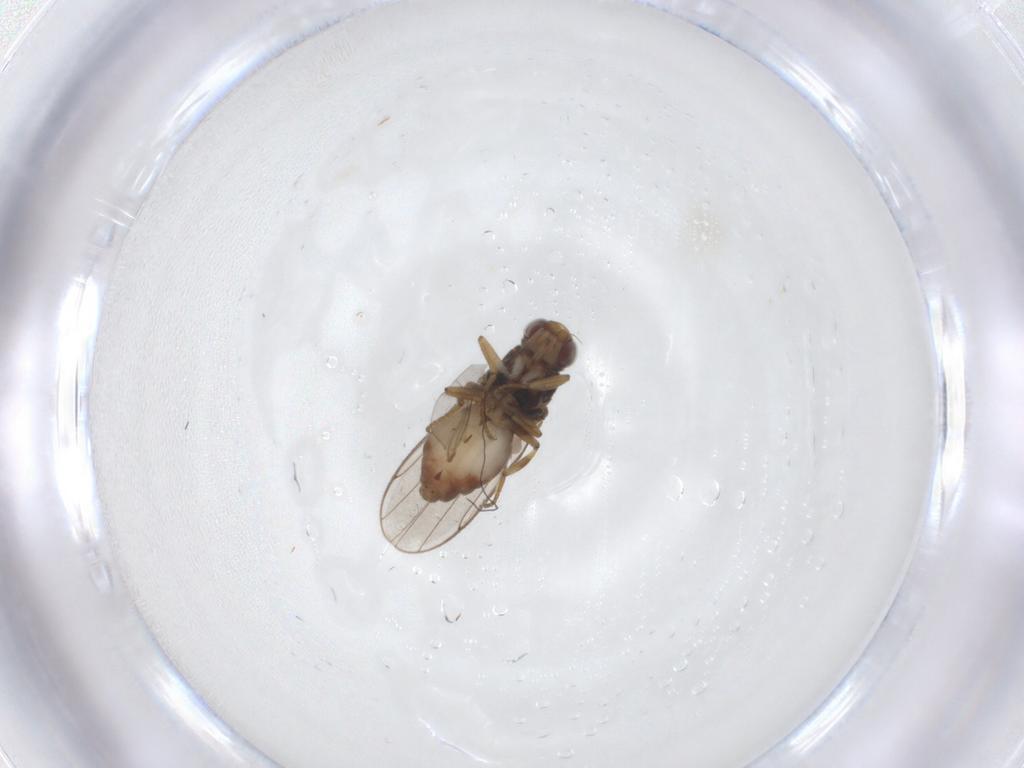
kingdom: Animalia
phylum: Arthropoda
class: Insecta
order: Diptera
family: Chloropidae
